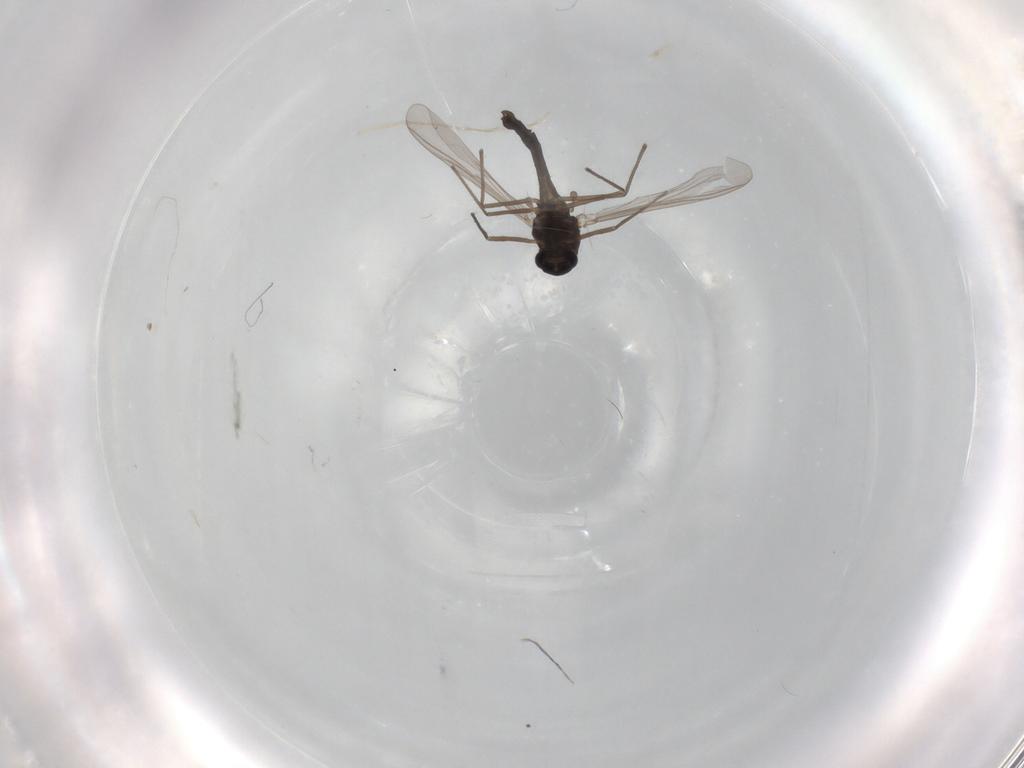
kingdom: Animalia
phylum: Arthropoda
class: Insecta
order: Diptera
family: Chironomidae
